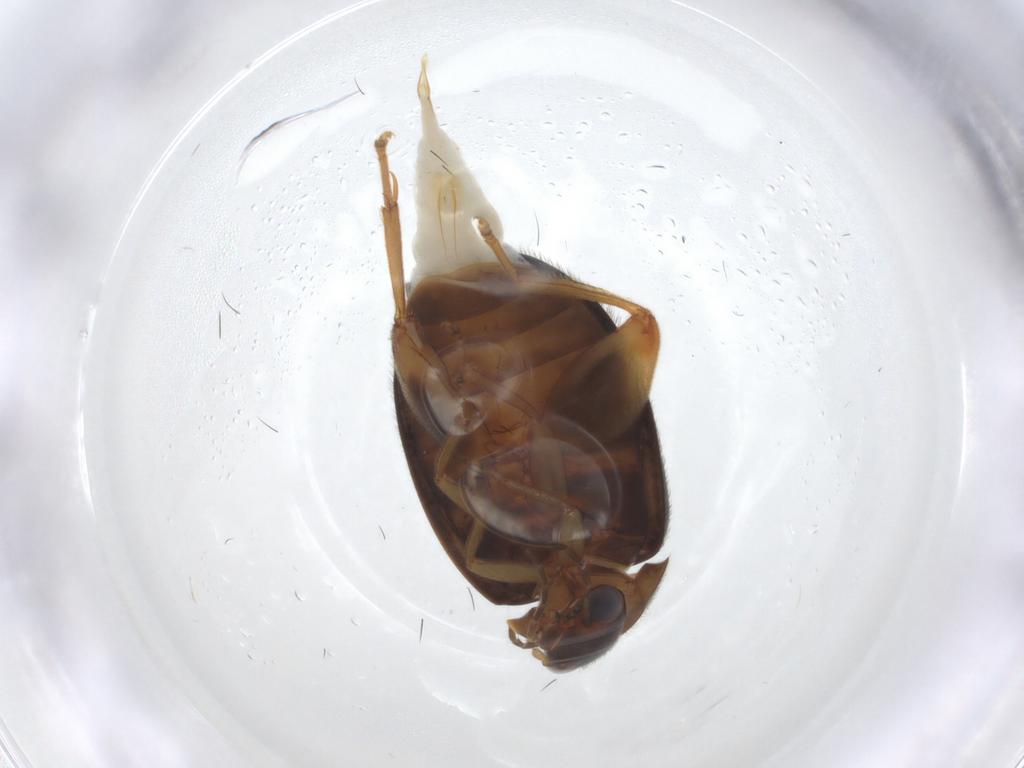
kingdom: Animalia
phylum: Arthropoda
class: Insecta
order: Coleoptera
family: Scirtidae
